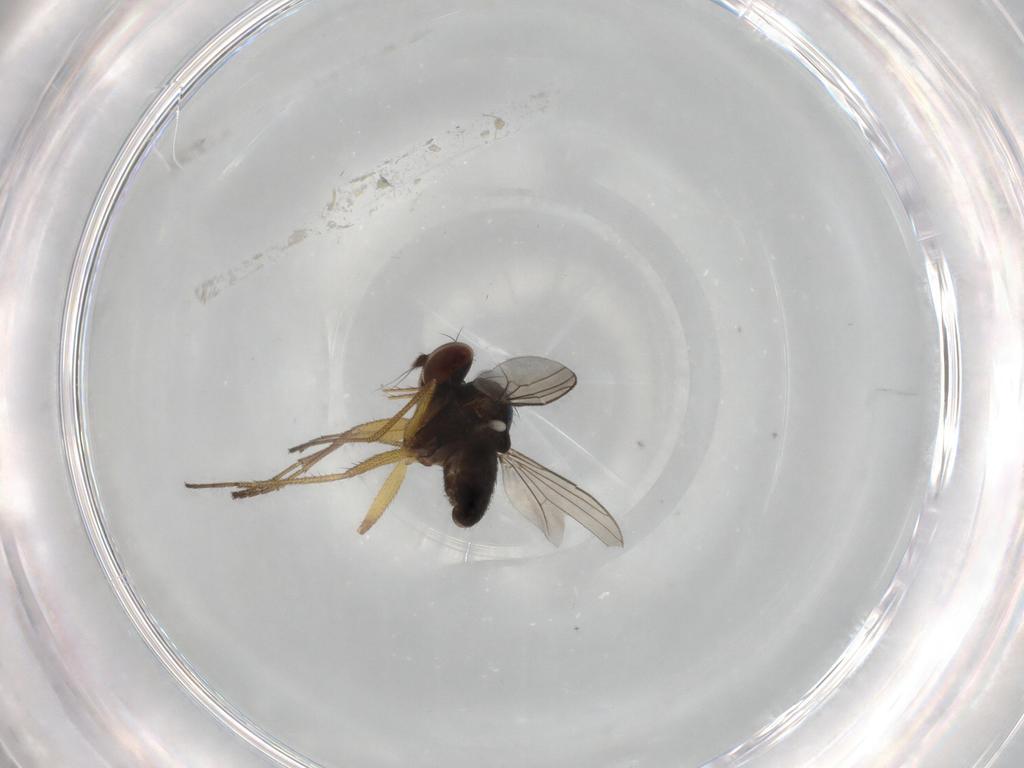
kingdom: Animalia
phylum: Arthropoda
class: Insecta
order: Diptera
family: Dolichopodidae
